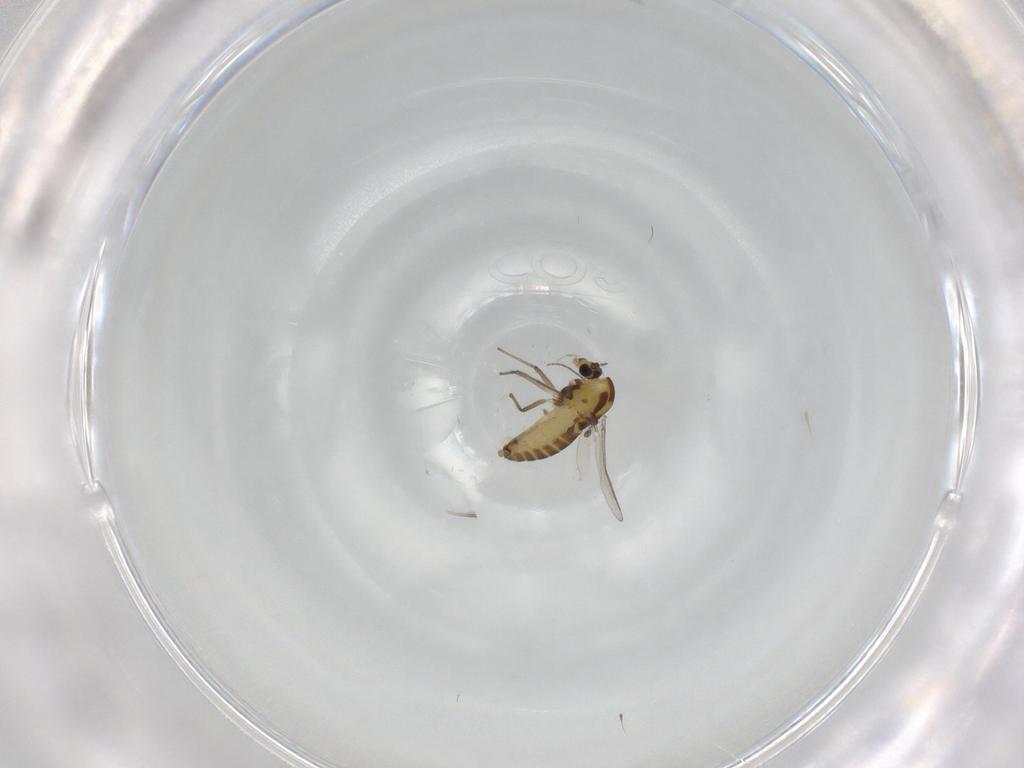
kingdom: Animalia
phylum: Arthropoda
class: Insecta
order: Diptera
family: Chironomidae
